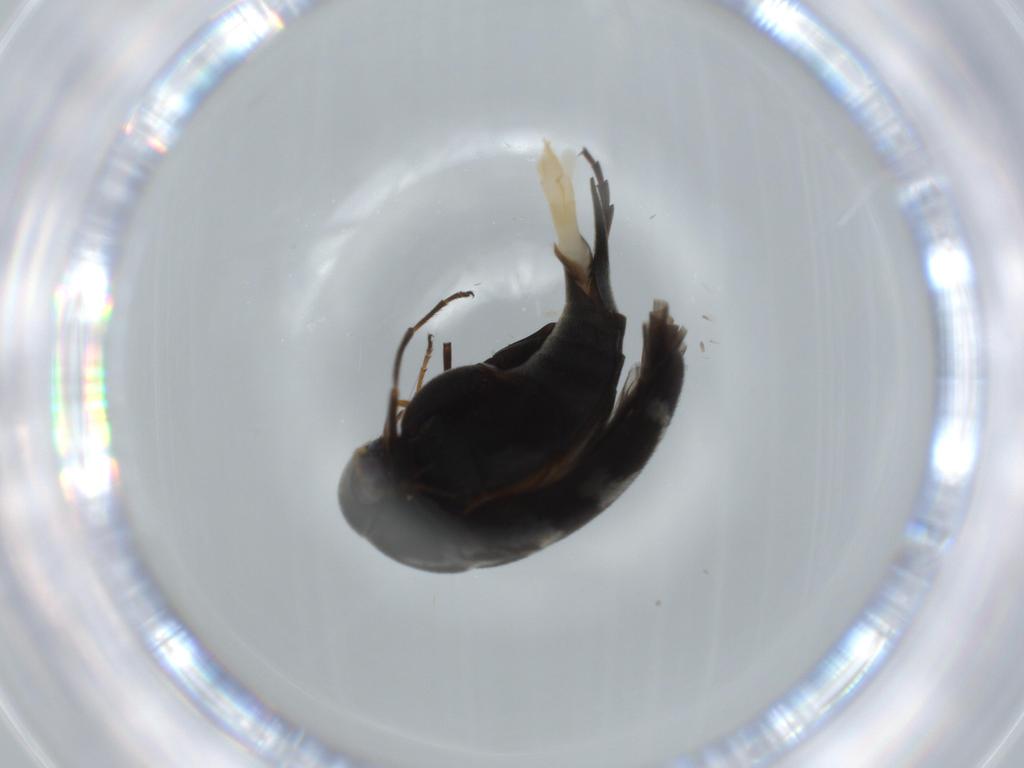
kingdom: Animalia
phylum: Arthropoda
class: Insecta
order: Coleoptera
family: Mordellidae
